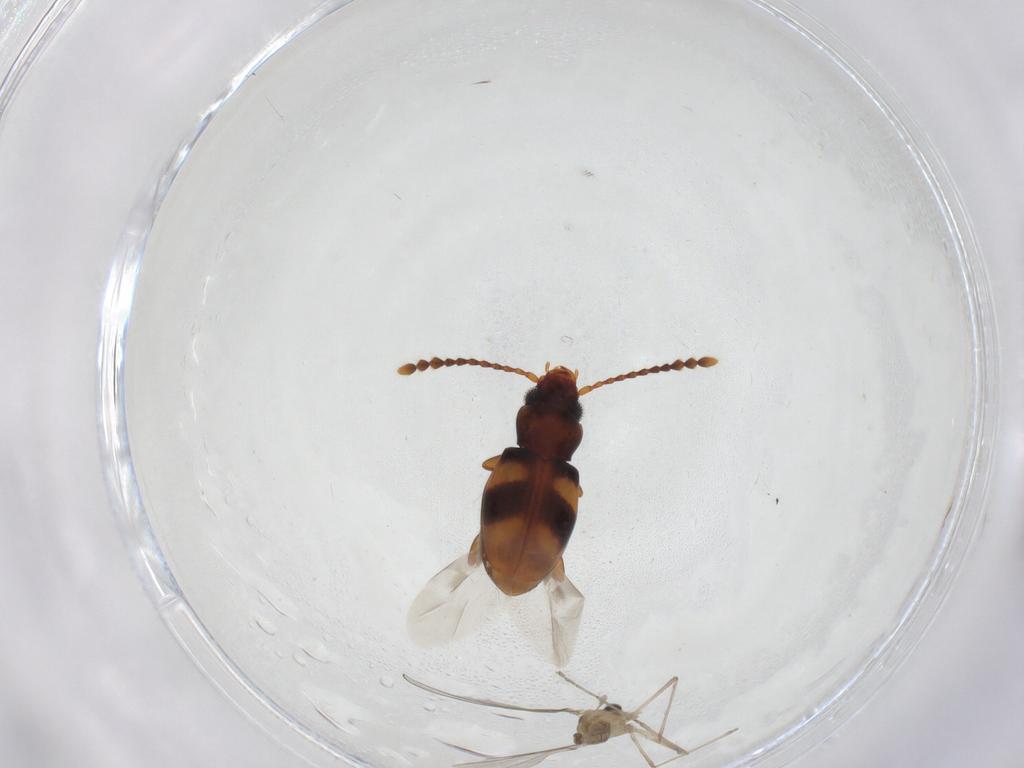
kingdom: Animalia
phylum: Arthropoda
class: Insecta
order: Coleoptera
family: Laemophloeidae
